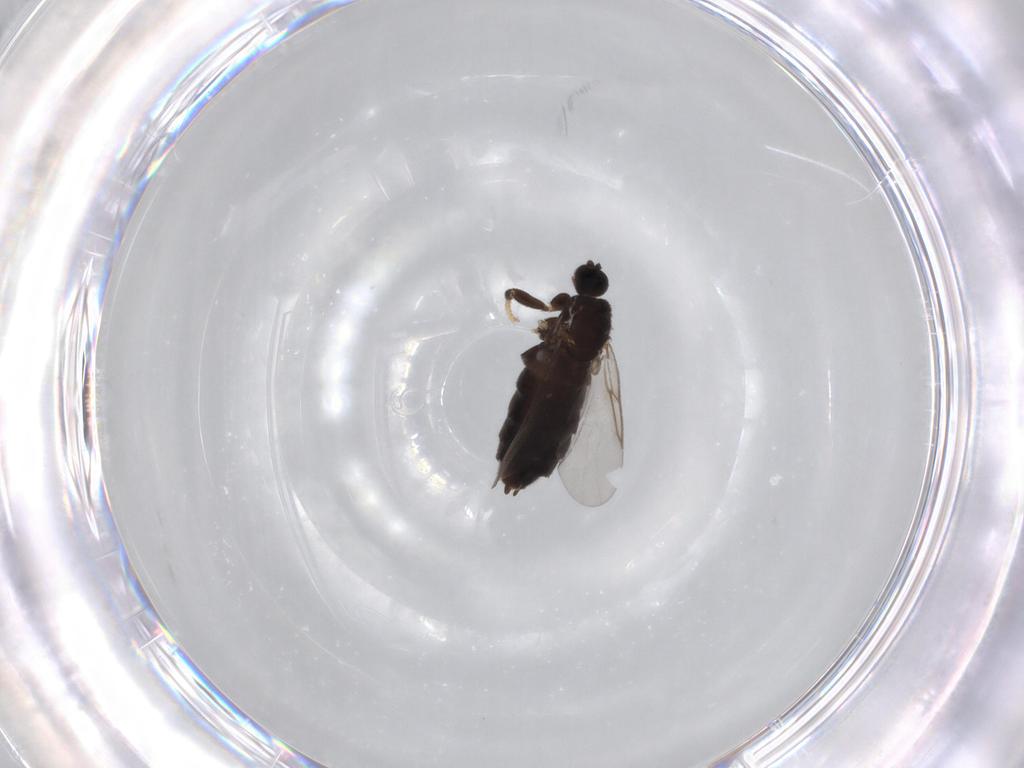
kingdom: Animalia
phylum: Arthropoda
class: Insecta
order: Diptera
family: Scatopsidae
